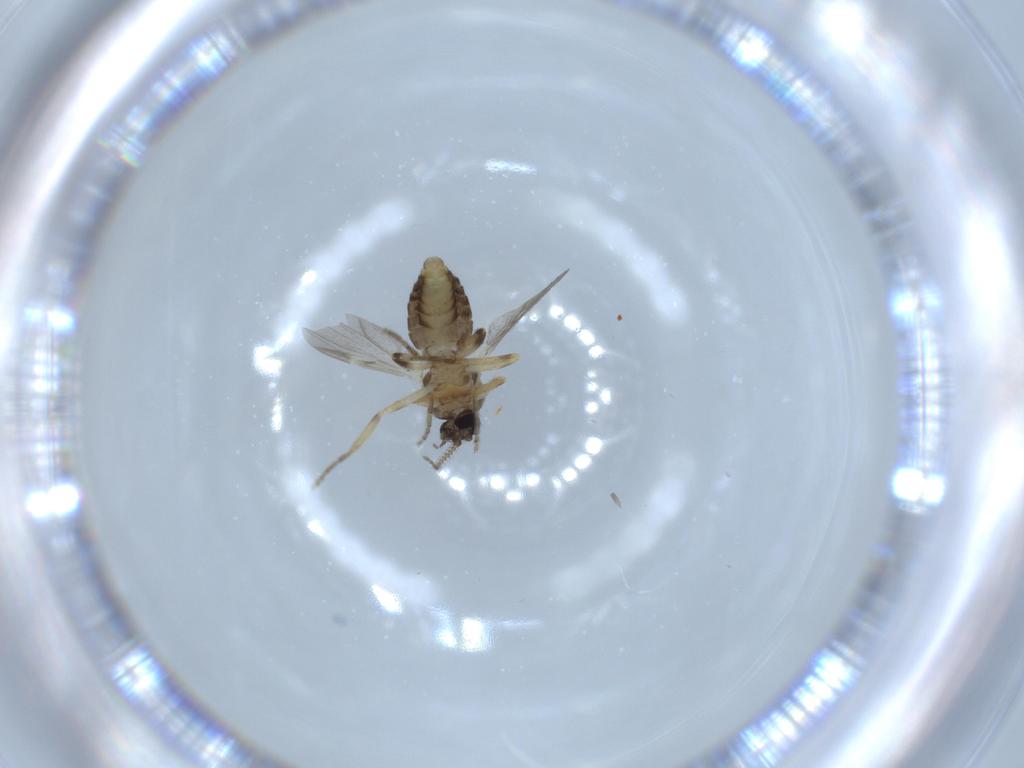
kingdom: Animalia
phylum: Arthropoda
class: Insecta
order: Diptera
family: Ceratopogonidae
